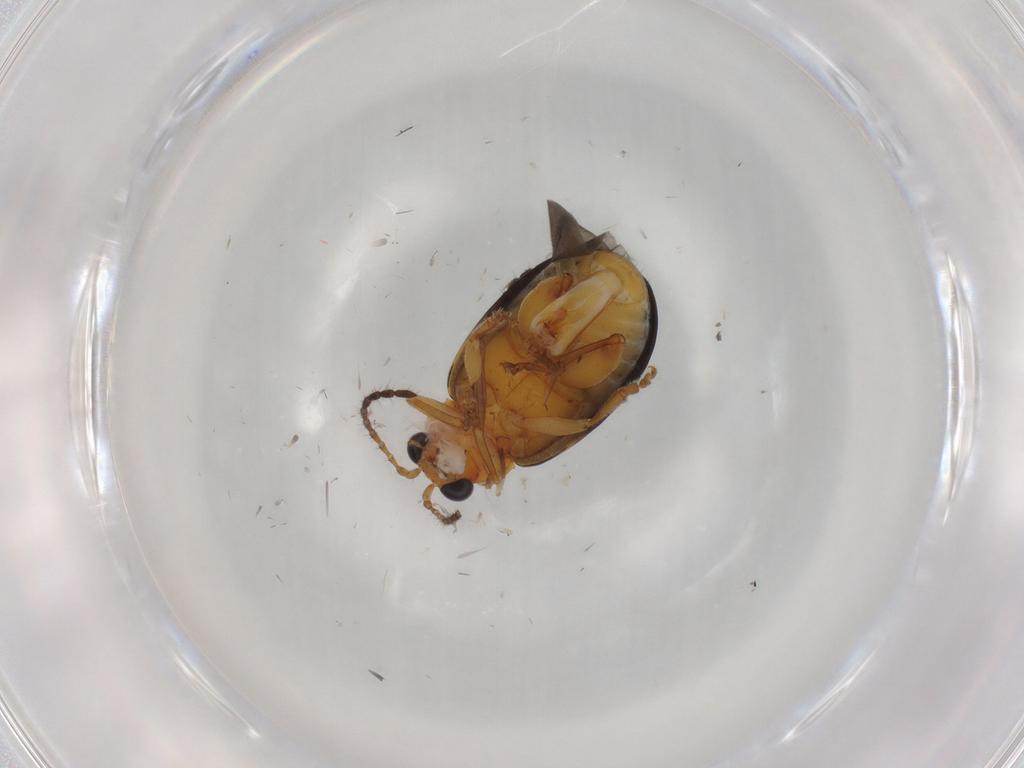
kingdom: Animalia
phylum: Arthropoda
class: Insecta
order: Coleoptera
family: Chrysomelidae
